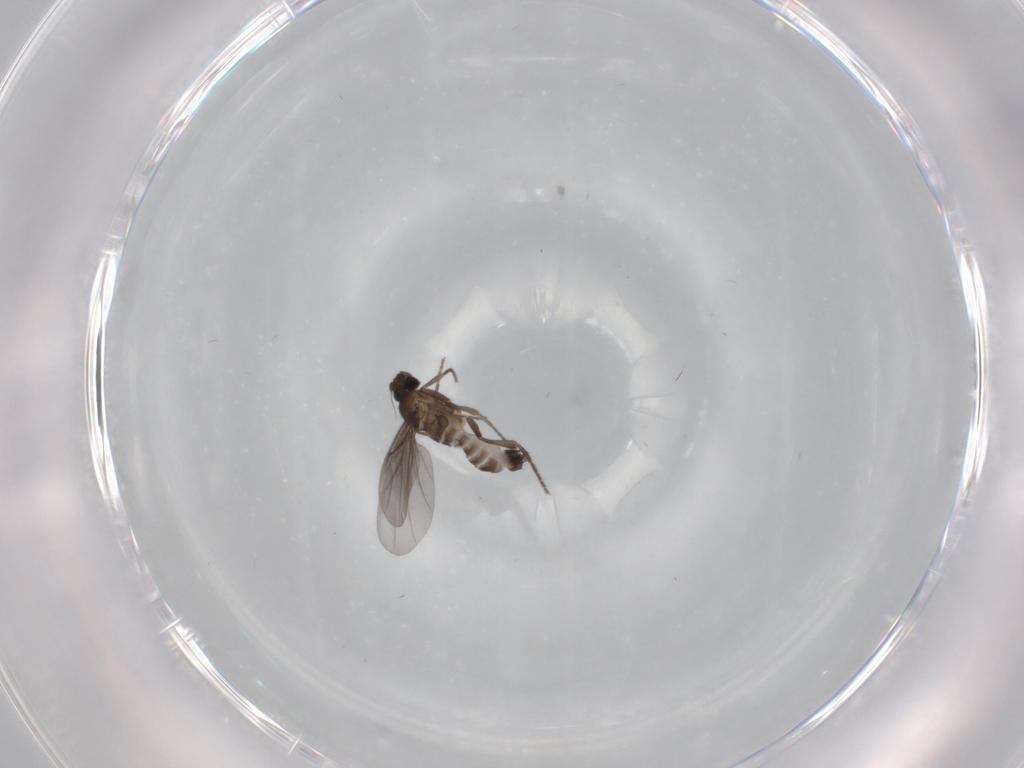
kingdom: Animalia
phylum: Arthropoda
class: Insecta
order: Diptera
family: Phoridae
